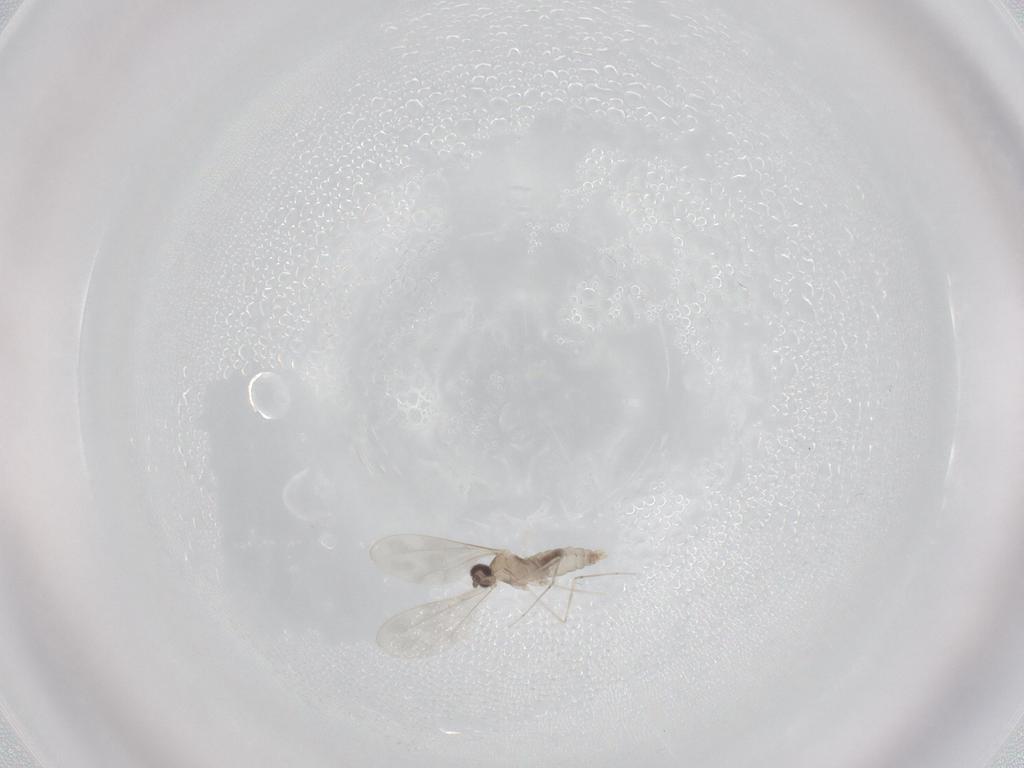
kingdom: Animalia
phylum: Arthropoda
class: Insecta
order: Diptera
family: Cecidomyiidae
